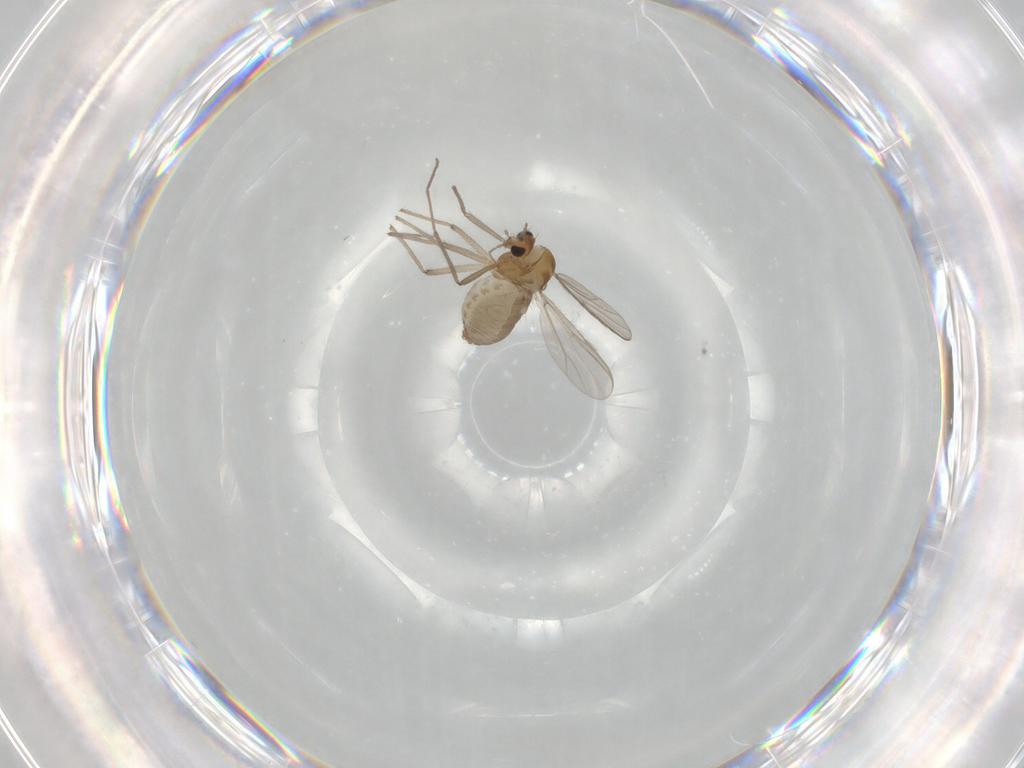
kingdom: Animalia
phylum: Arthropoda
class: Insecta
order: Diptera
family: Chironomidae
